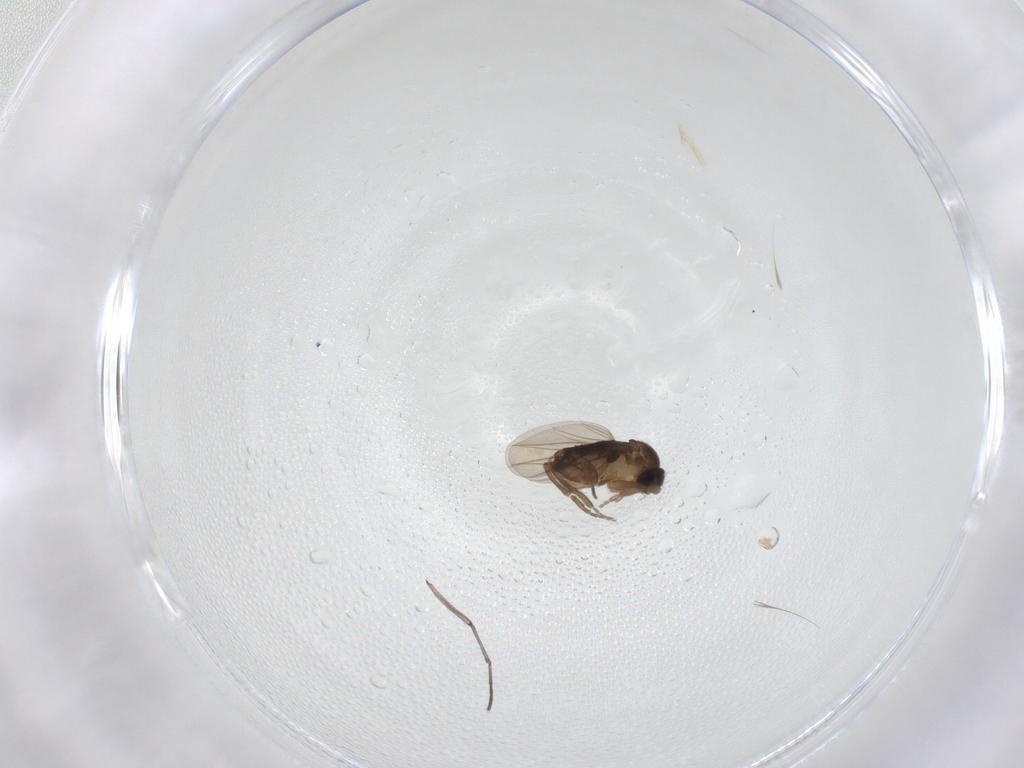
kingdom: Animalia
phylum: Arthropoda
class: Insecta
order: Diptera
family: Sciaridae
